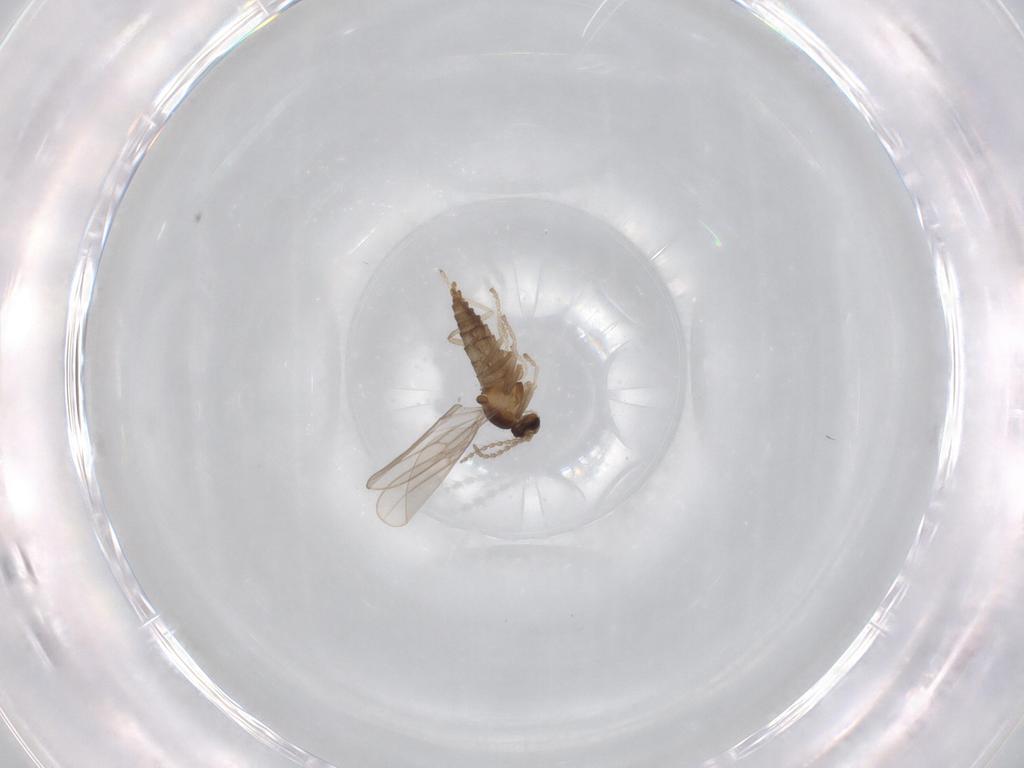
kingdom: Animalia
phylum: Arthropoda
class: Insecta
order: Diptera
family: Cecidomyiidae
